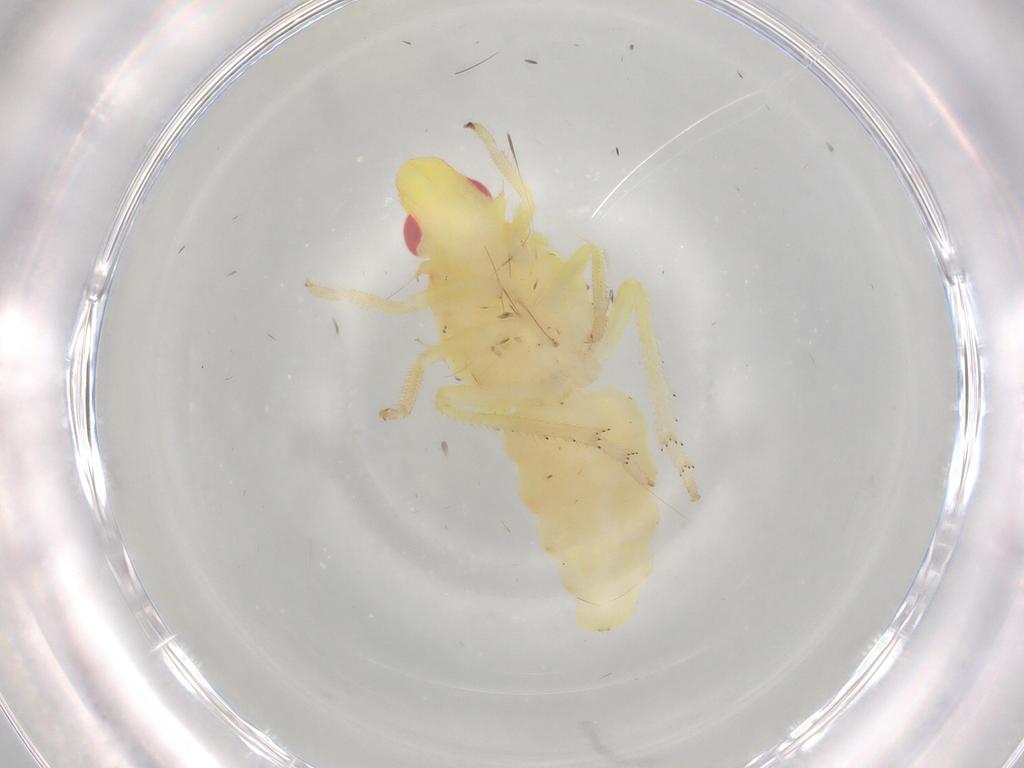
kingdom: Animalia
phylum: Arthropoda
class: Insecta
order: Hemiptera
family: Tropiduchidae
